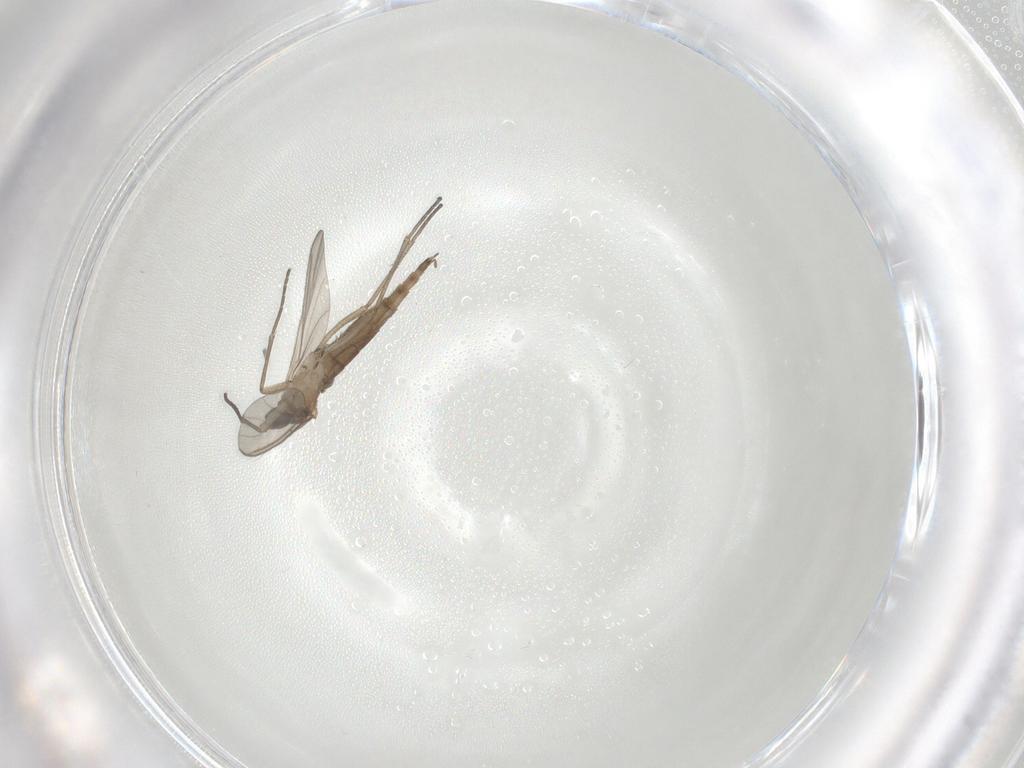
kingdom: Animalia
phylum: Arthropoda
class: Insecta
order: Diptera
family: Sciaridae
